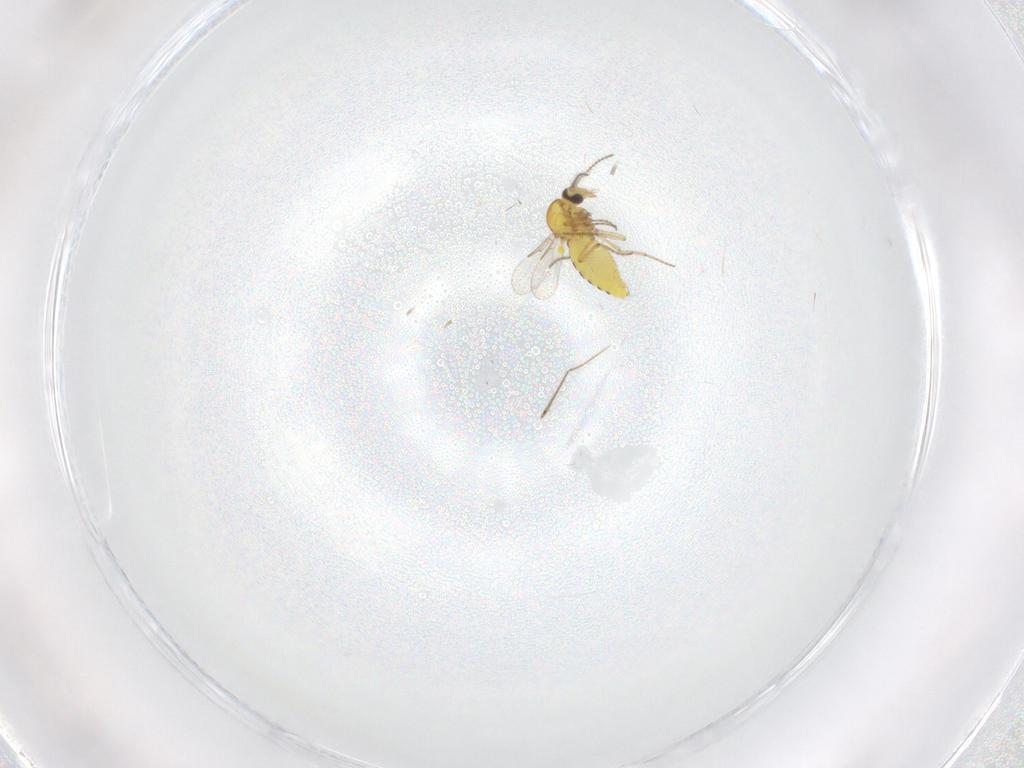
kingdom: Animalia
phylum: Arthropoda
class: Insecta
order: Diptera
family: Ceratopogonidae
